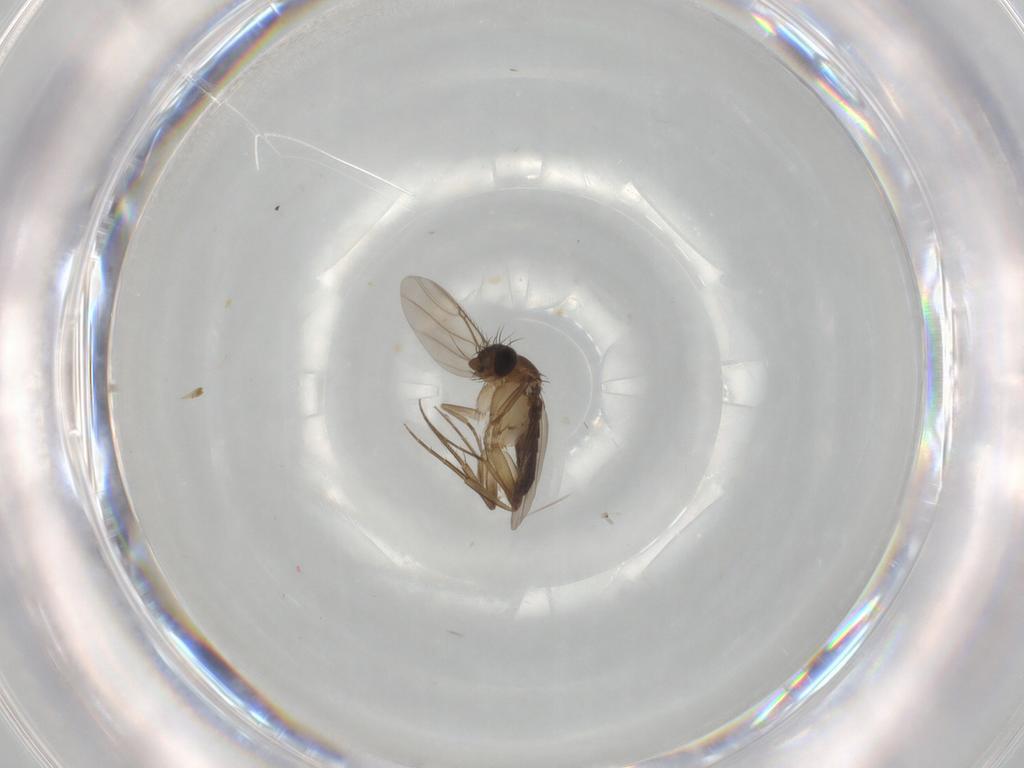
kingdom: Animalia
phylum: Arthropoda
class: Insecta
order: Diptera
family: Phoridae
